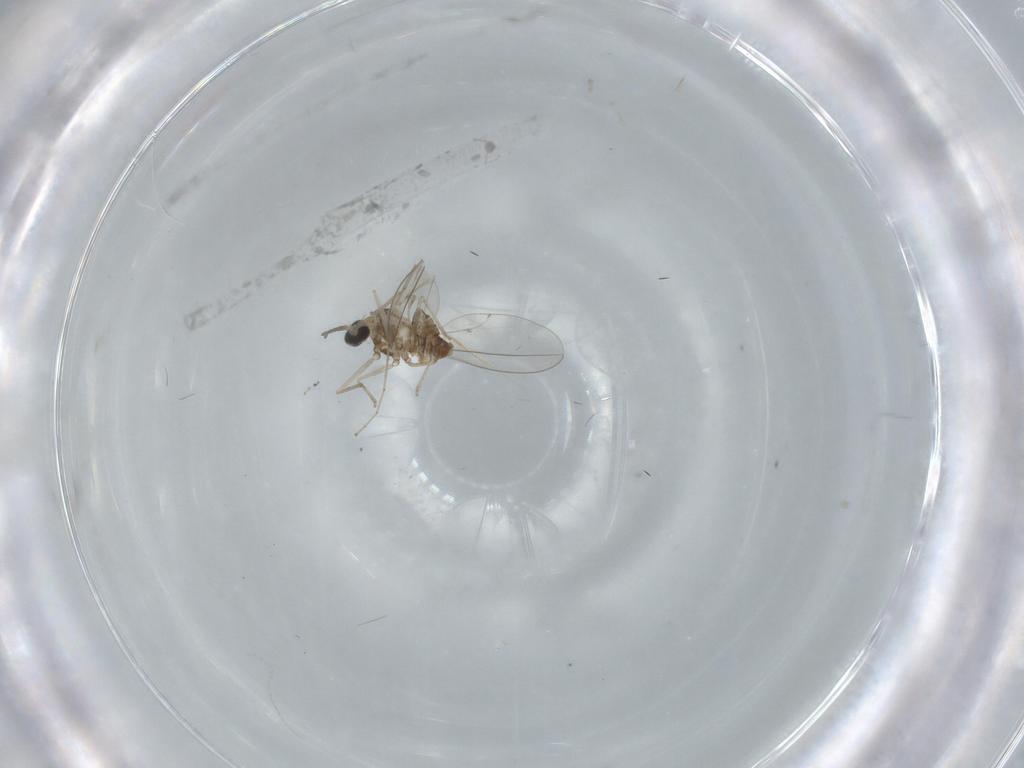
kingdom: Animalia
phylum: Arthropoda
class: Insecta
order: Diptera
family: Cecidomyiidae
